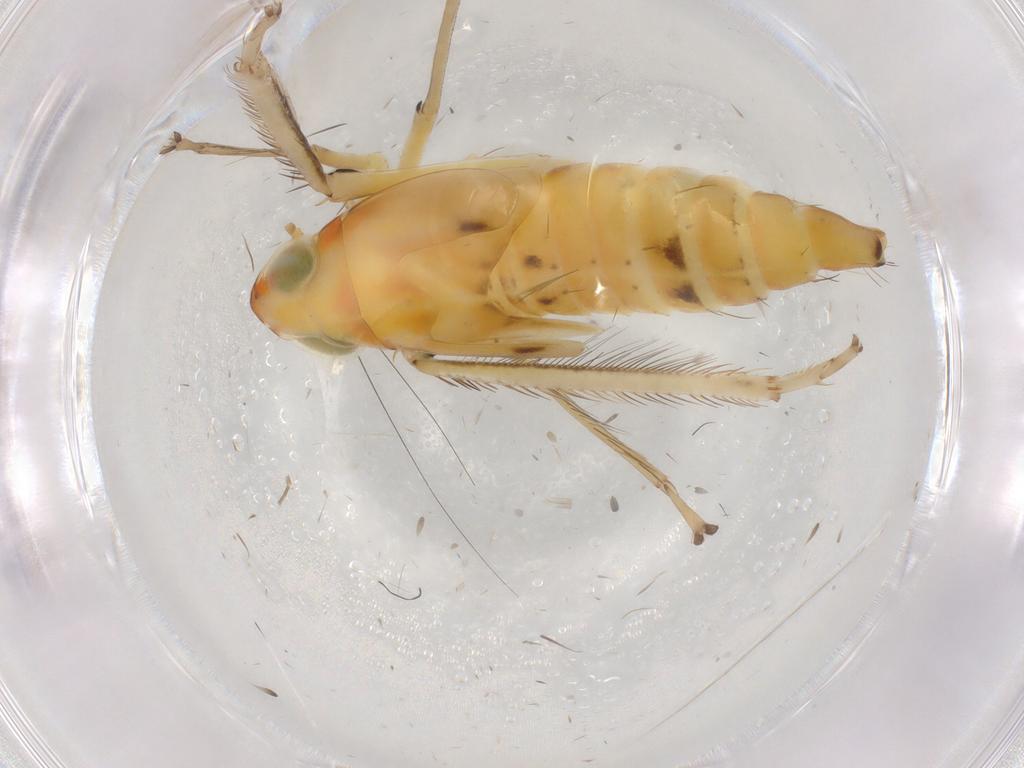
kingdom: Animalia
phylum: Arthropoda
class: Insecta
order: Hemiptera
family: Cicadellidae
